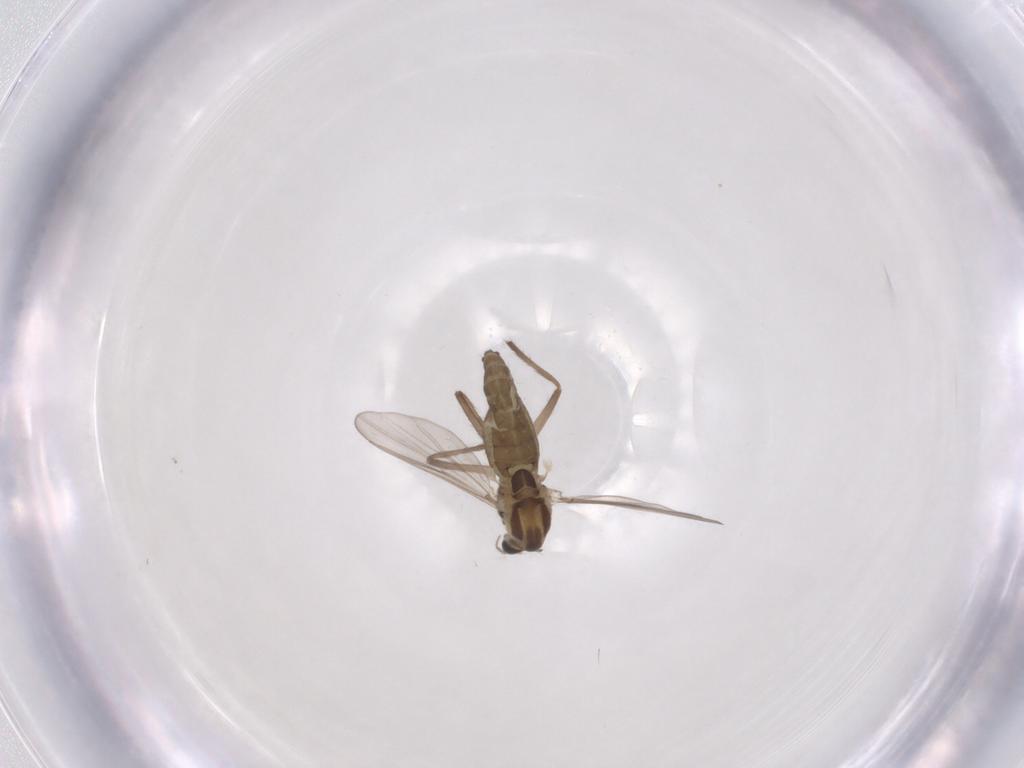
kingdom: Animalia
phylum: Arthropoda
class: Insecta
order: Diptera
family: Chironomidae
